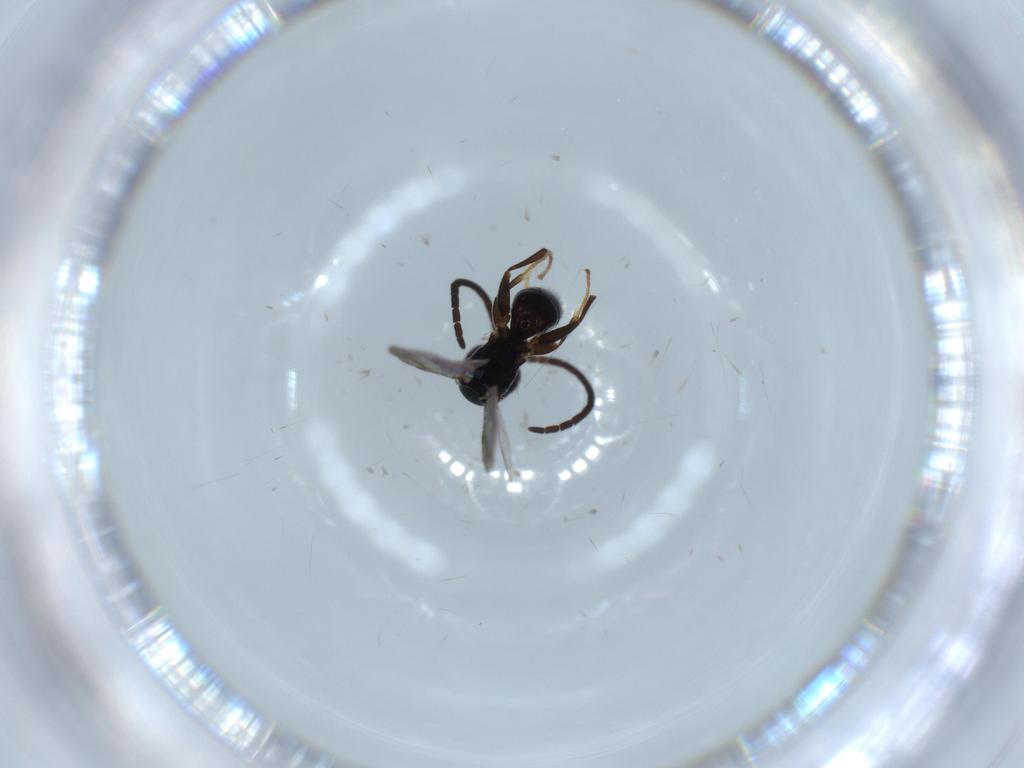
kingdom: Animalia
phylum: Arthropoda
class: Insecta
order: Hymenoptera
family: Bethylidae
